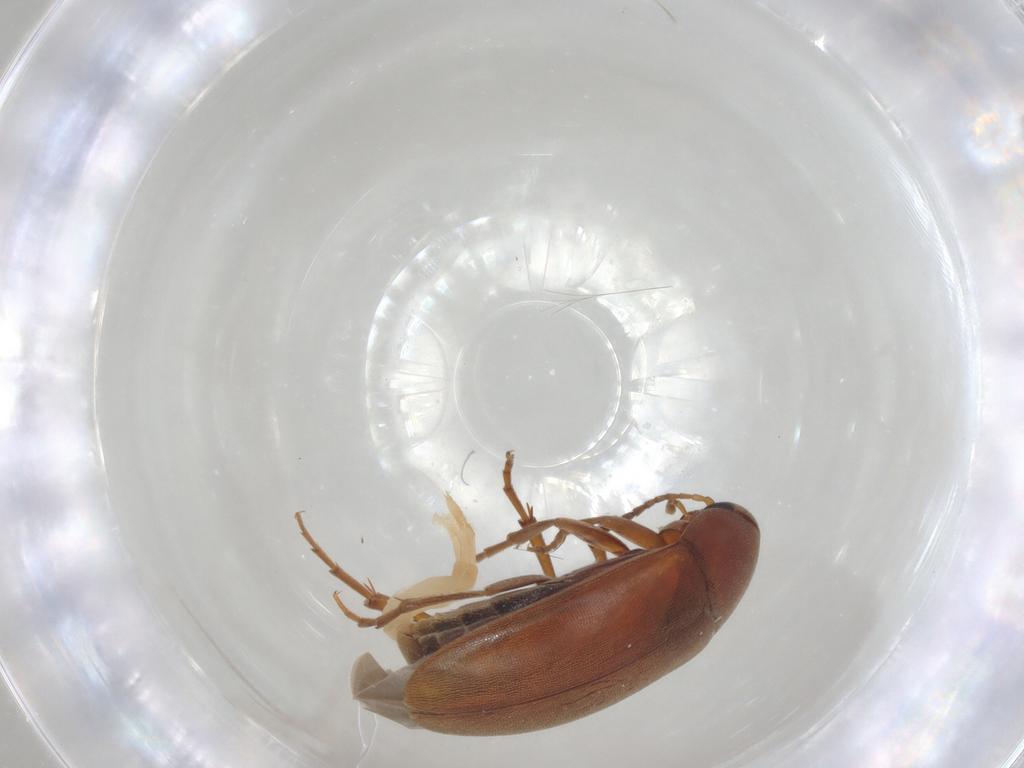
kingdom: Animalia
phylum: Arthropoda
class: Insecta
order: Coleoptera
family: Scraptiidae
